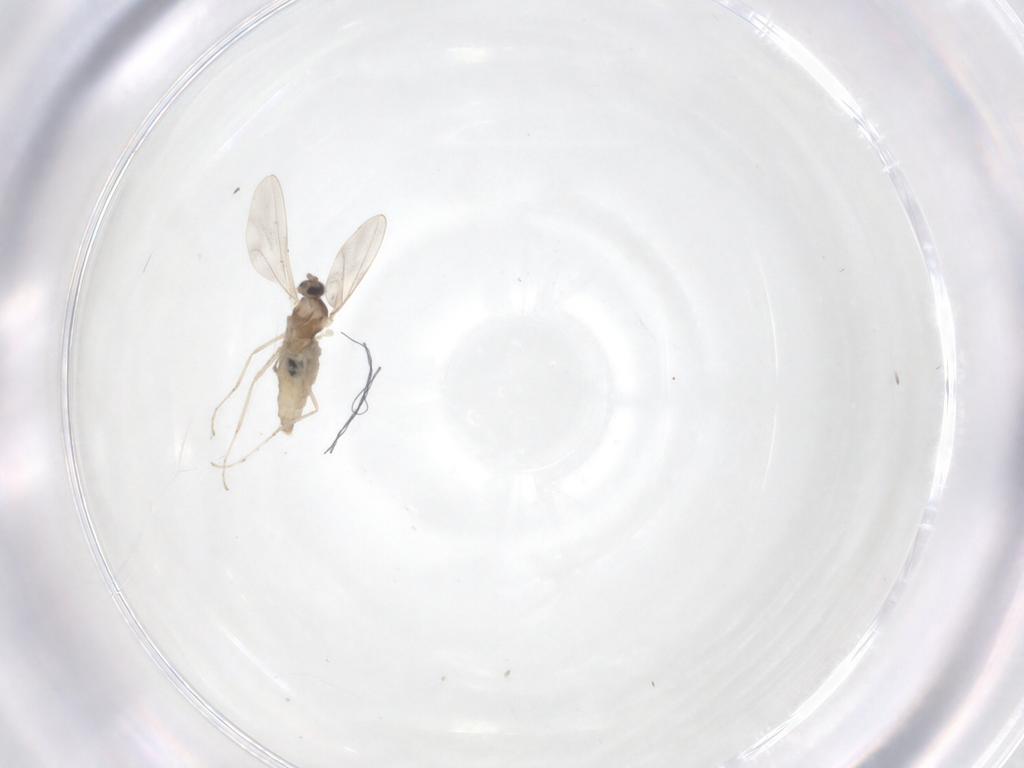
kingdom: Animalia
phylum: Arthropoda
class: Insecta
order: Diptera
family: Cecidomyiidae
